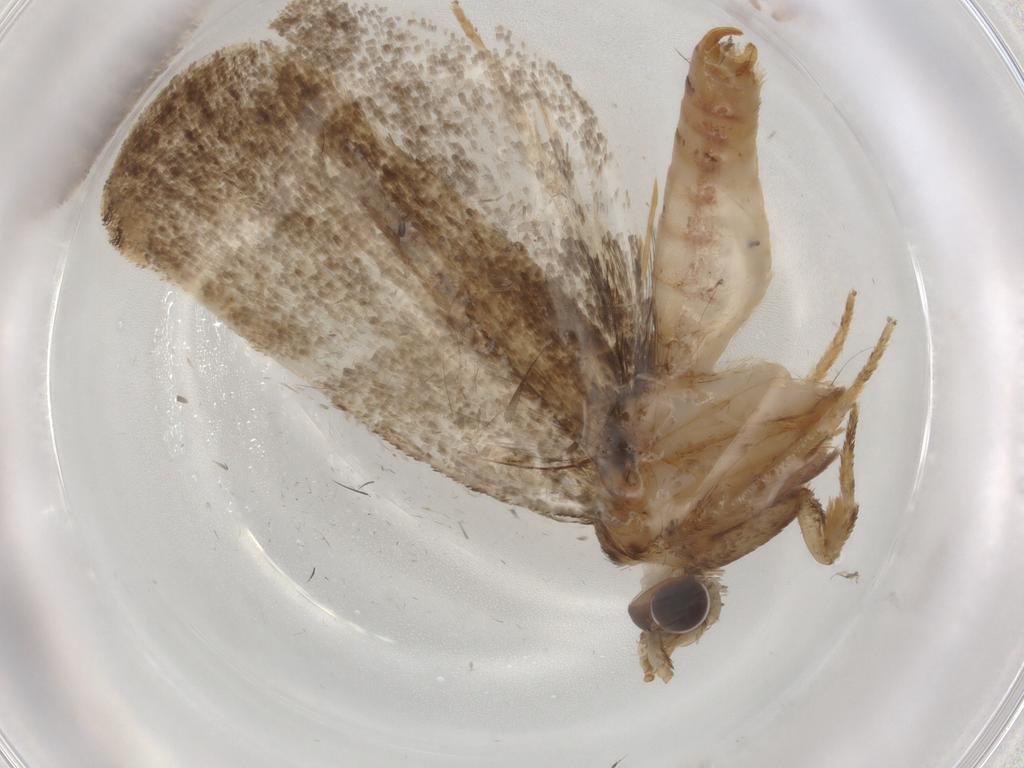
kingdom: Animalia
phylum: Arthropoda
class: Insecta
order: Lepidoptera
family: Tineidae
